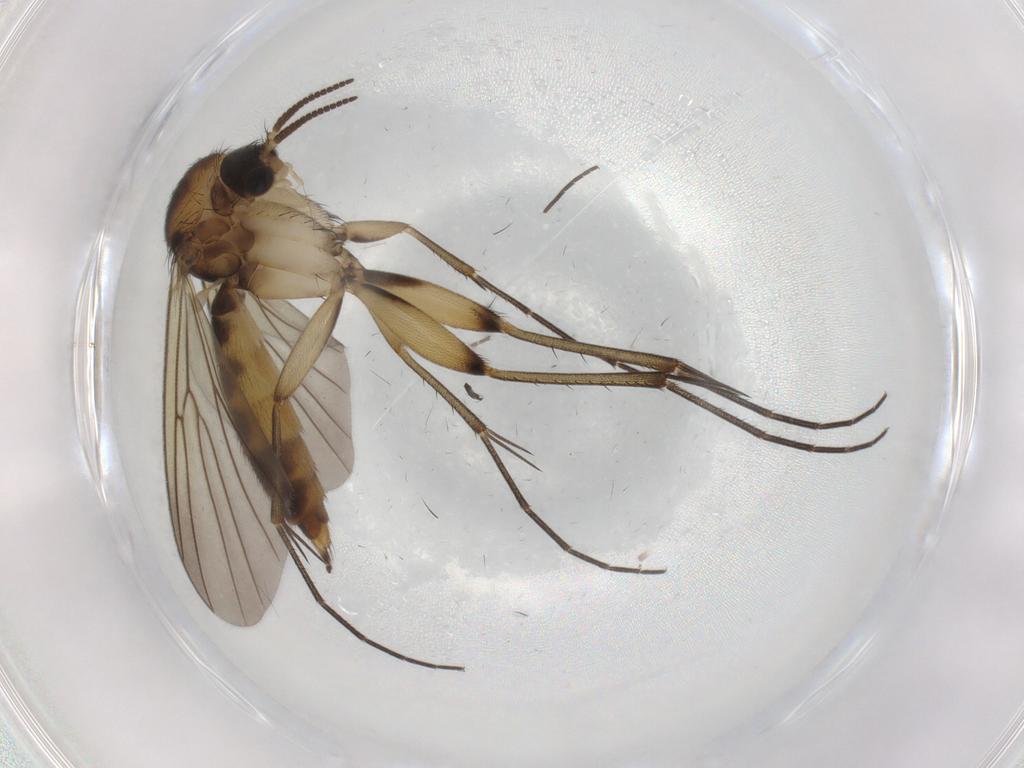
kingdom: Animalia
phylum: Arthropoda
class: Insecta
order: Diptera
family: Mycetophilidae
